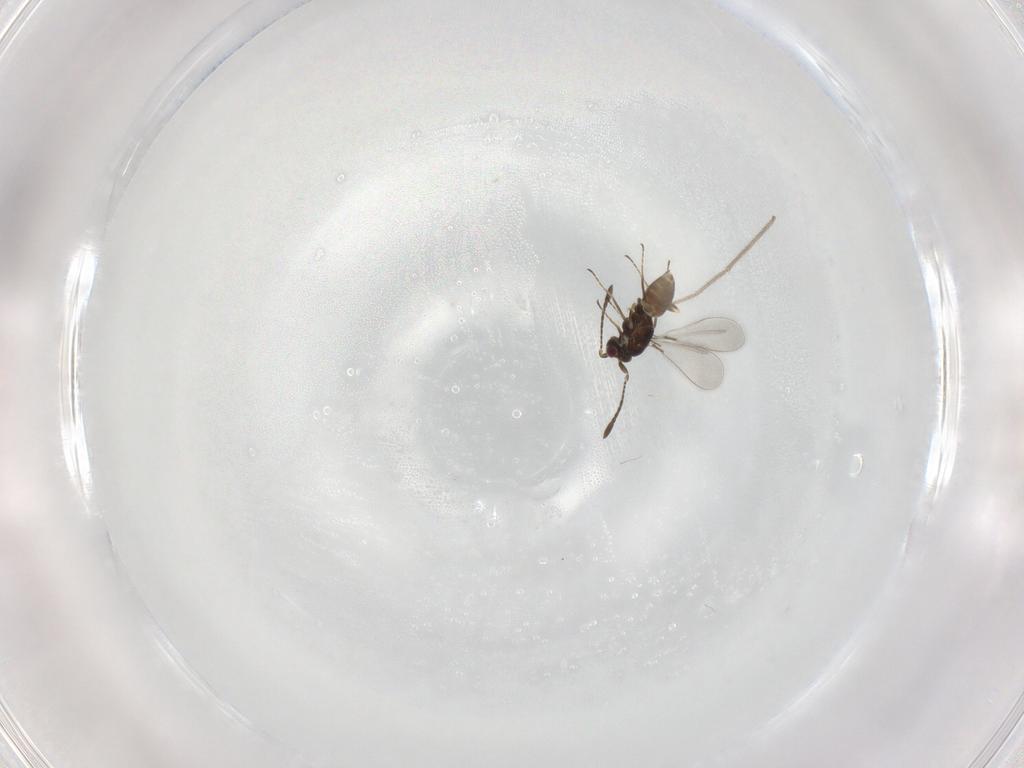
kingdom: Animalia
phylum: Arthropoda
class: Insecta
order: Hymenoptera
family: Mymaridae
